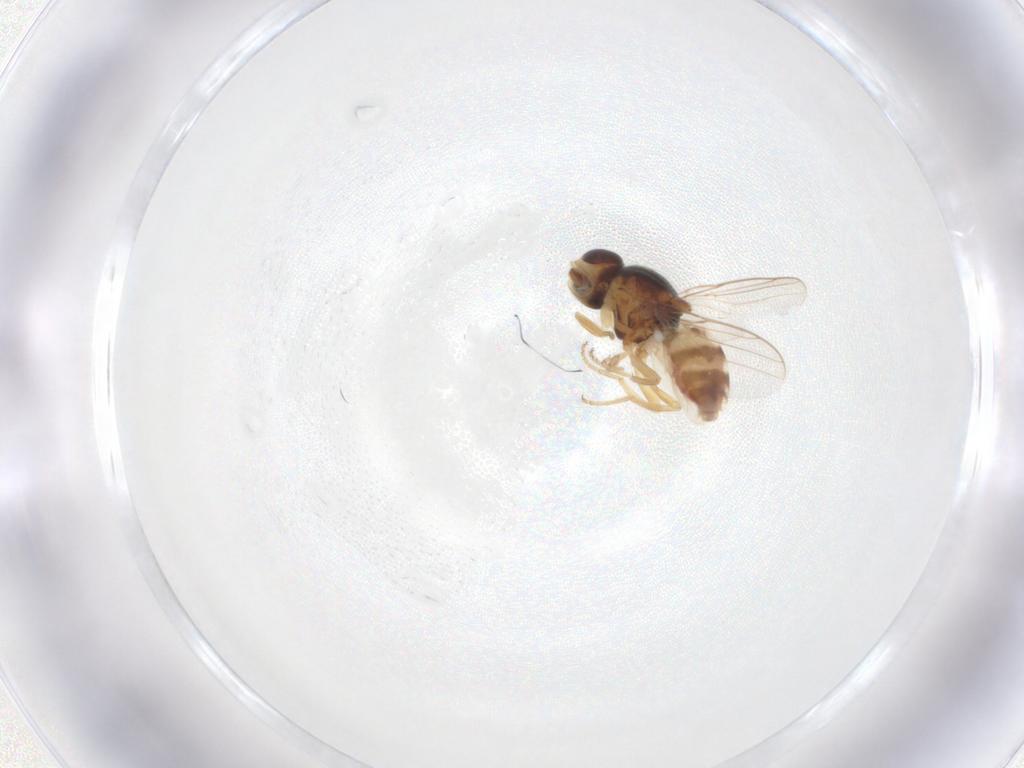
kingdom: Animalia
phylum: Arthropoda
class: Insecta
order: Diptera
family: Chloropidae
